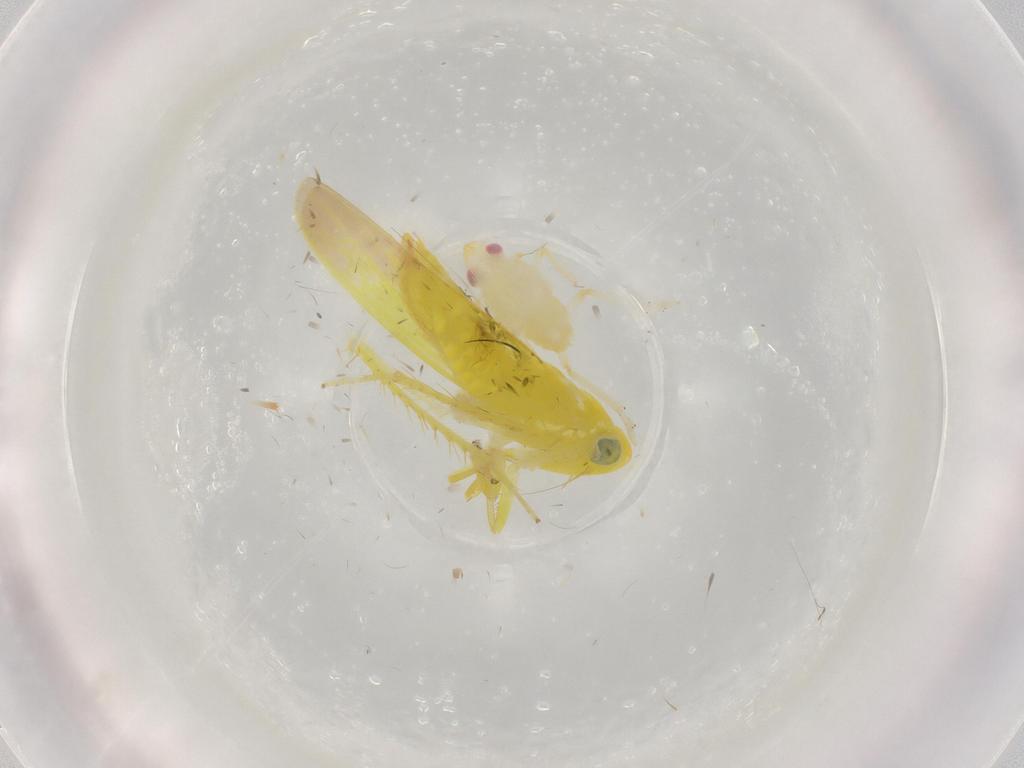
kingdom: Animalia
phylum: Arthropoda
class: Insecta
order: Hemiptera
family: Cicadellidae
